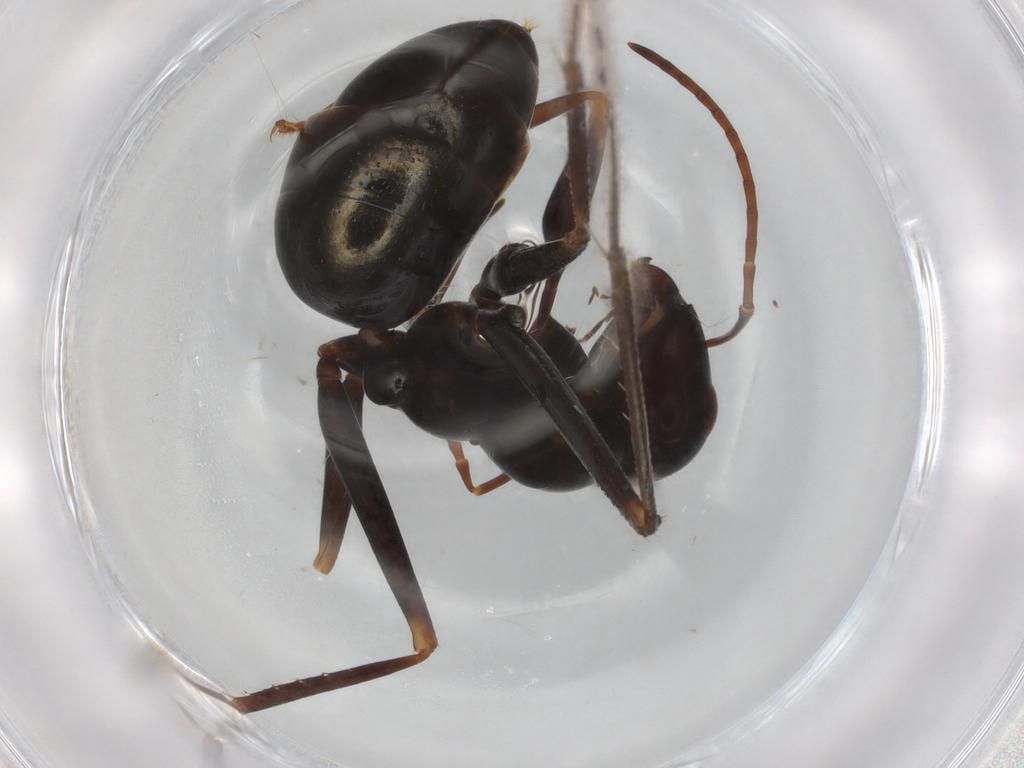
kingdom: Animalia
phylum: Arthropoda
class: Insecta
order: Hymenoptera
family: Formicidae
